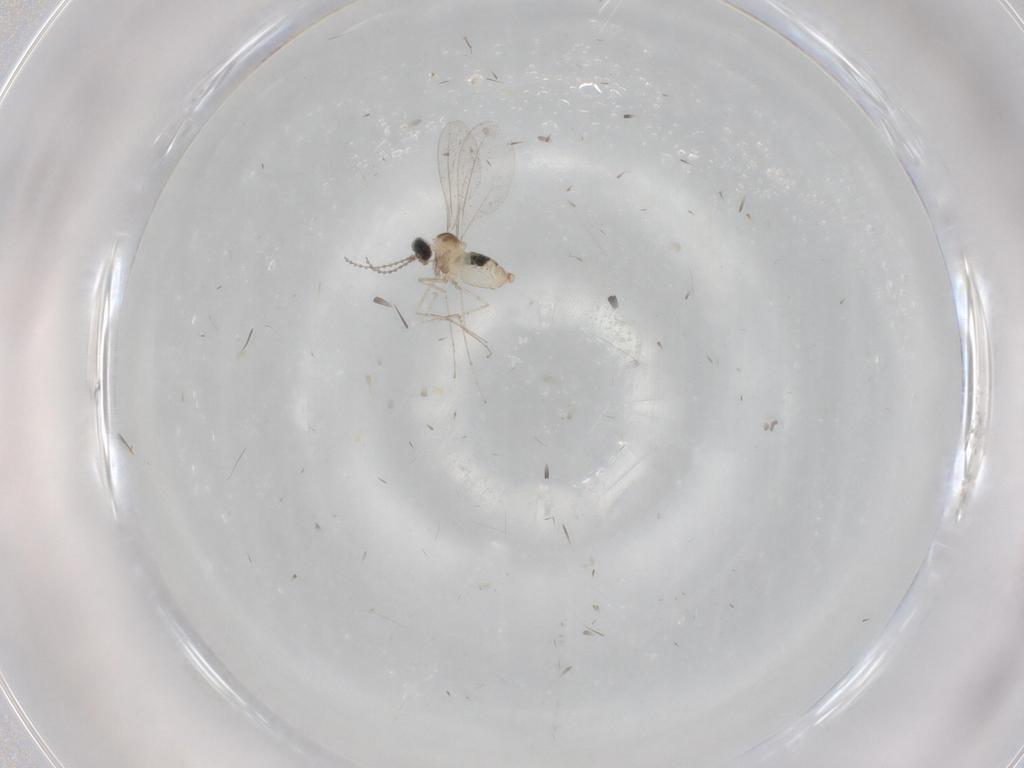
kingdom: Animalia
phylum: Arthropoda
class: Insecta
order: Diptera
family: Cecidomyiidae
